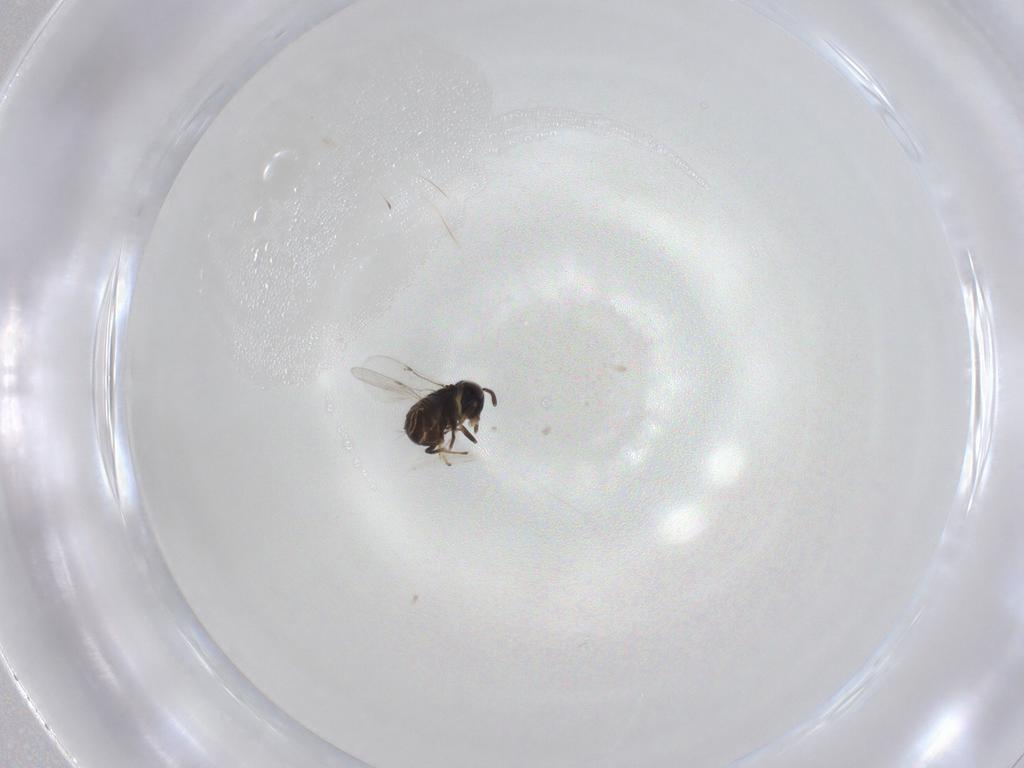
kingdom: Animalia
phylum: Arthropoda
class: Insecta
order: Hymenoptera
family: Encyrtidae
